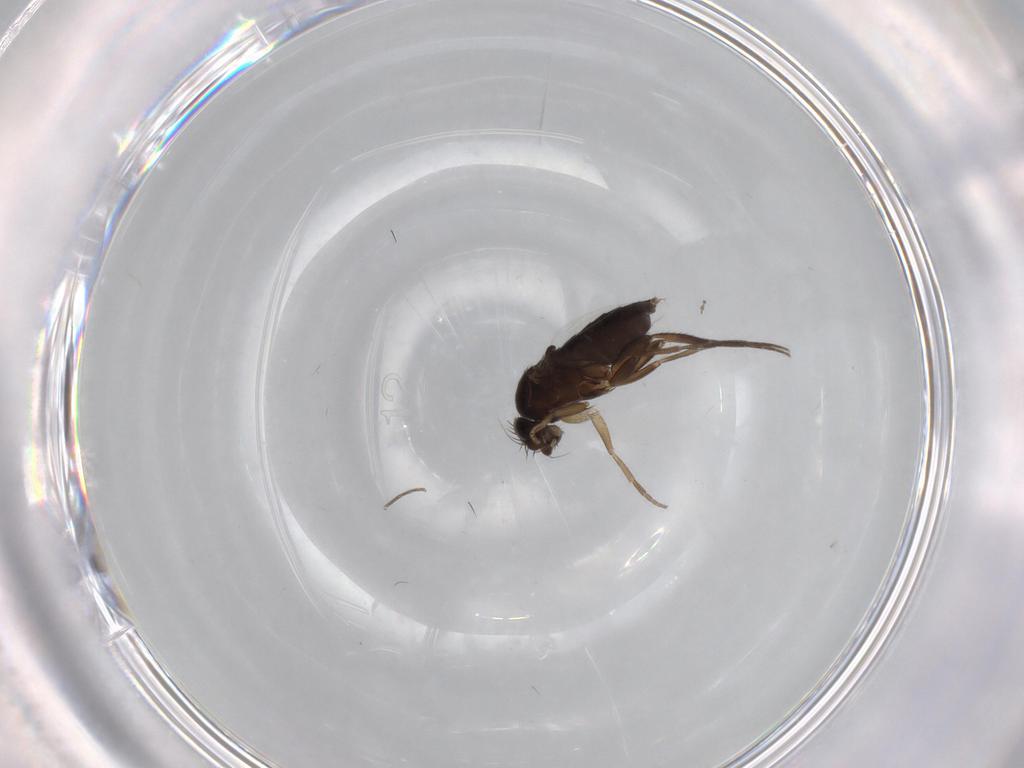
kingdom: Animalia
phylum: Arthropoda
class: Insecta
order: Diptera
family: Phoridae
